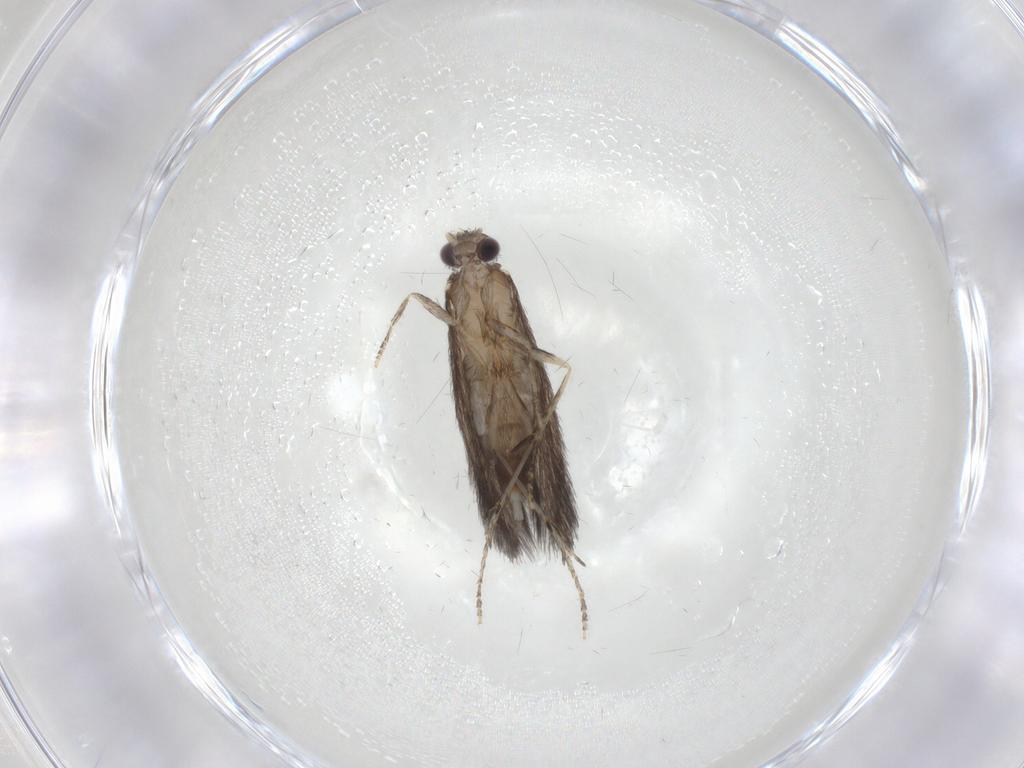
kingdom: Animalia
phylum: Arthropoda
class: Insecta
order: Trichoptera
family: Hydroptilidae
